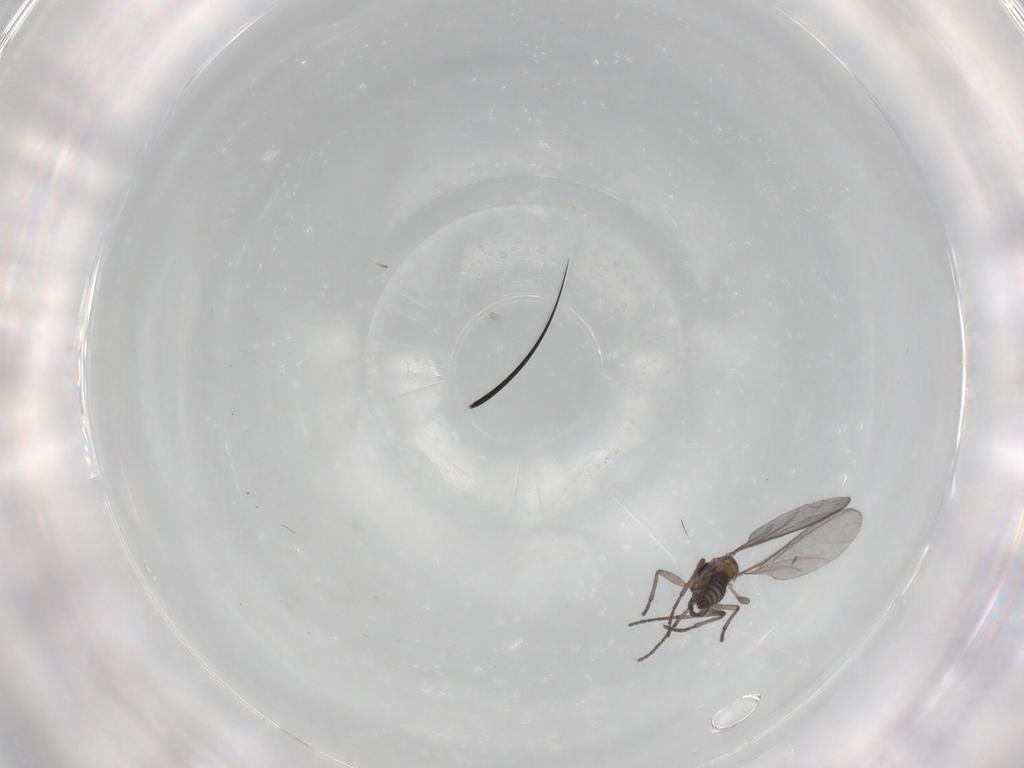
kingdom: Animalia
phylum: Arthropoda
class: Insecta
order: Diptera
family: Sciaridae
